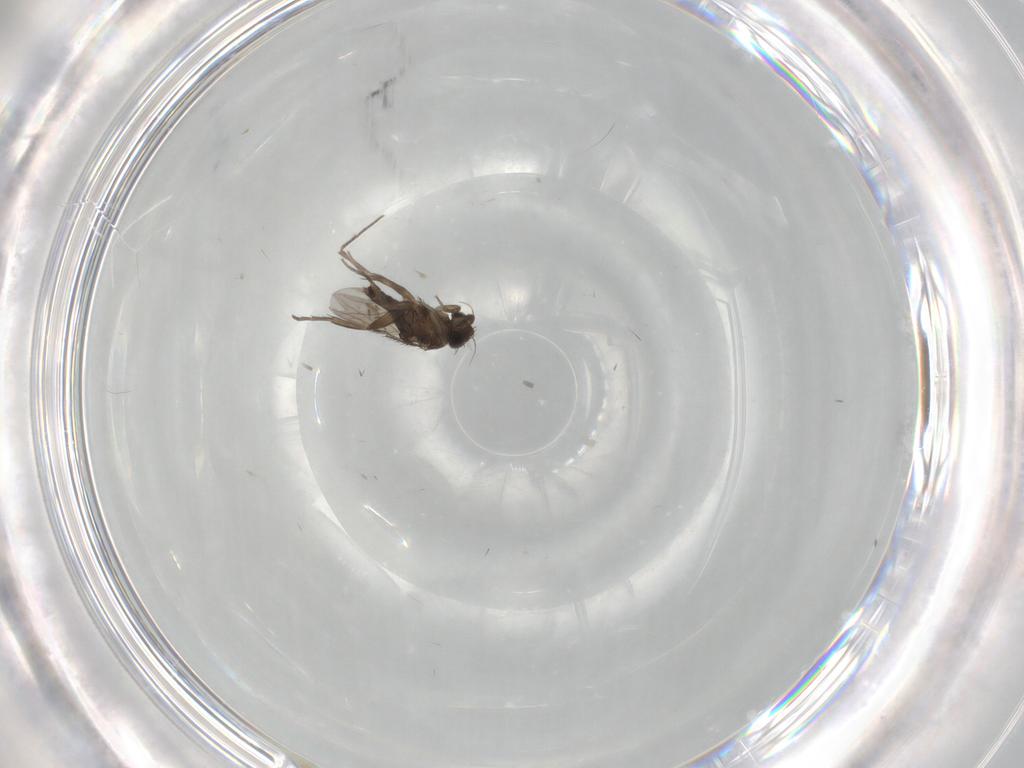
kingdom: Animalia
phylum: Arthropoda
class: Insecta
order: Diptera
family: Phoridae
